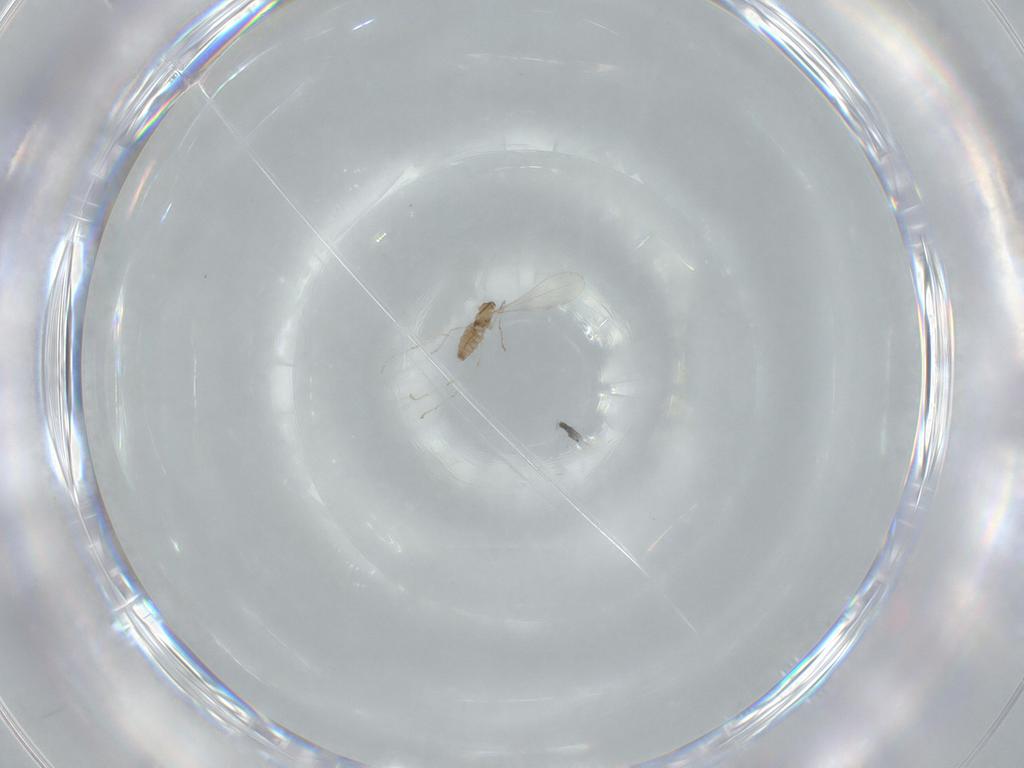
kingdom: Animalia
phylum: Arthropoda
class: Insecta
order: Diptera
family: Cecidomyiidae
